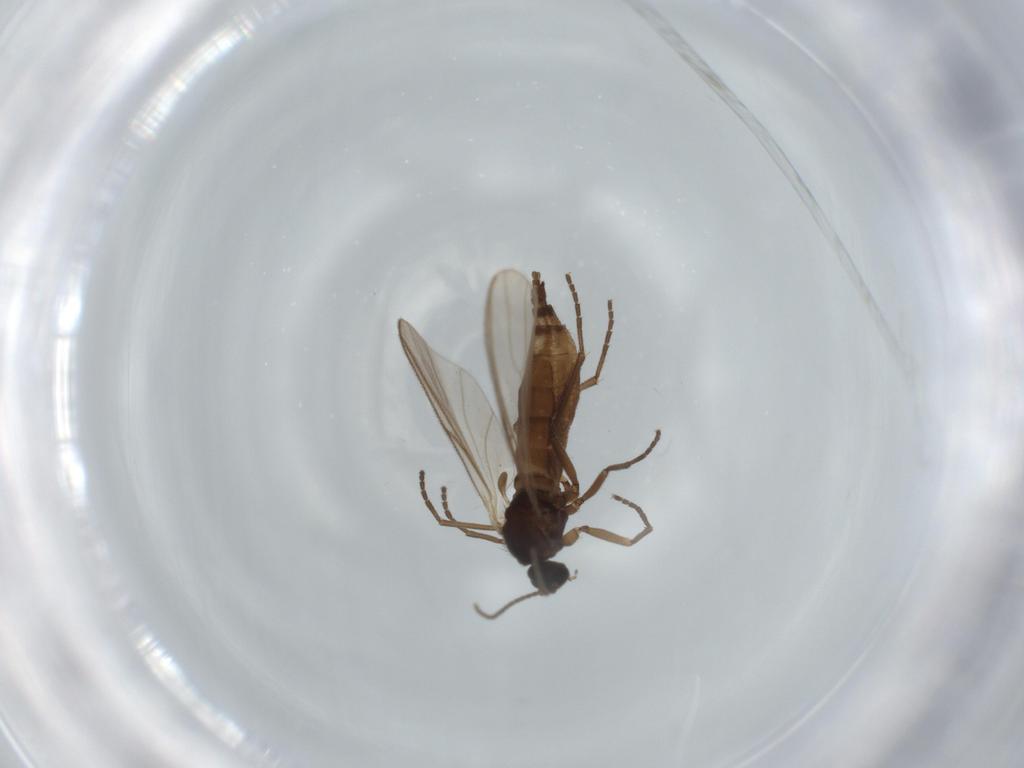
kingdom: Animalia
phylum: Arthropoda
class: Insecta
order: Diptera
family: Sciaridae
